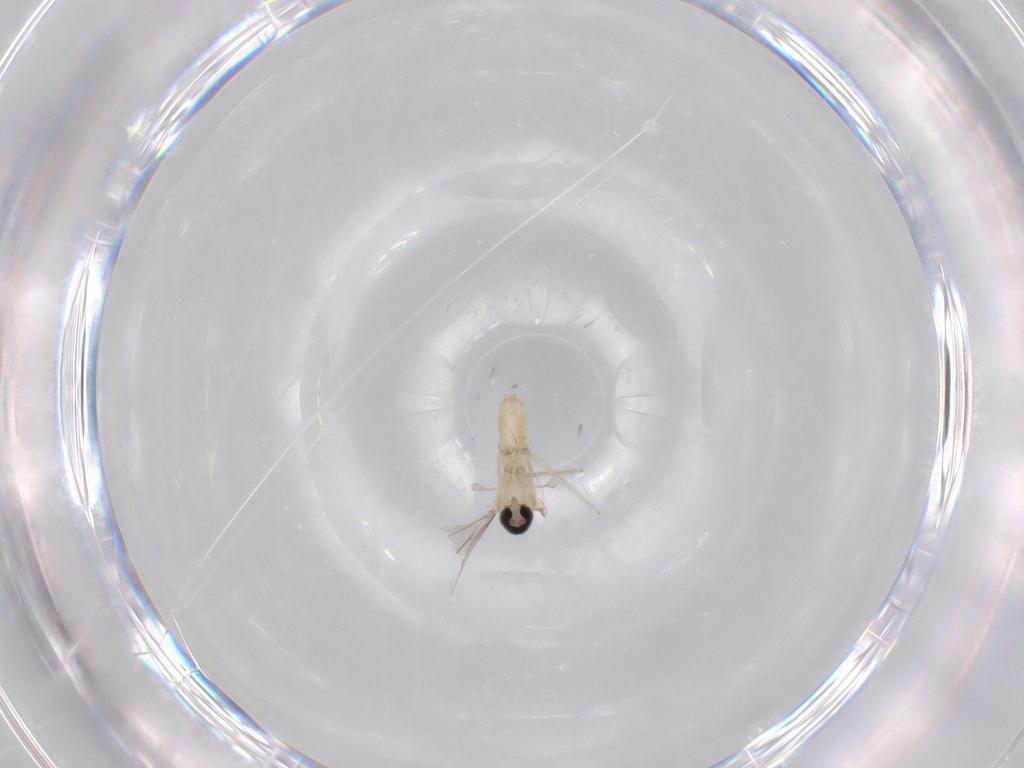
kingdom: Animalia
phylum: Arthropoda
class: Insecta
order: Diptera
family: Cecidomyiidae
